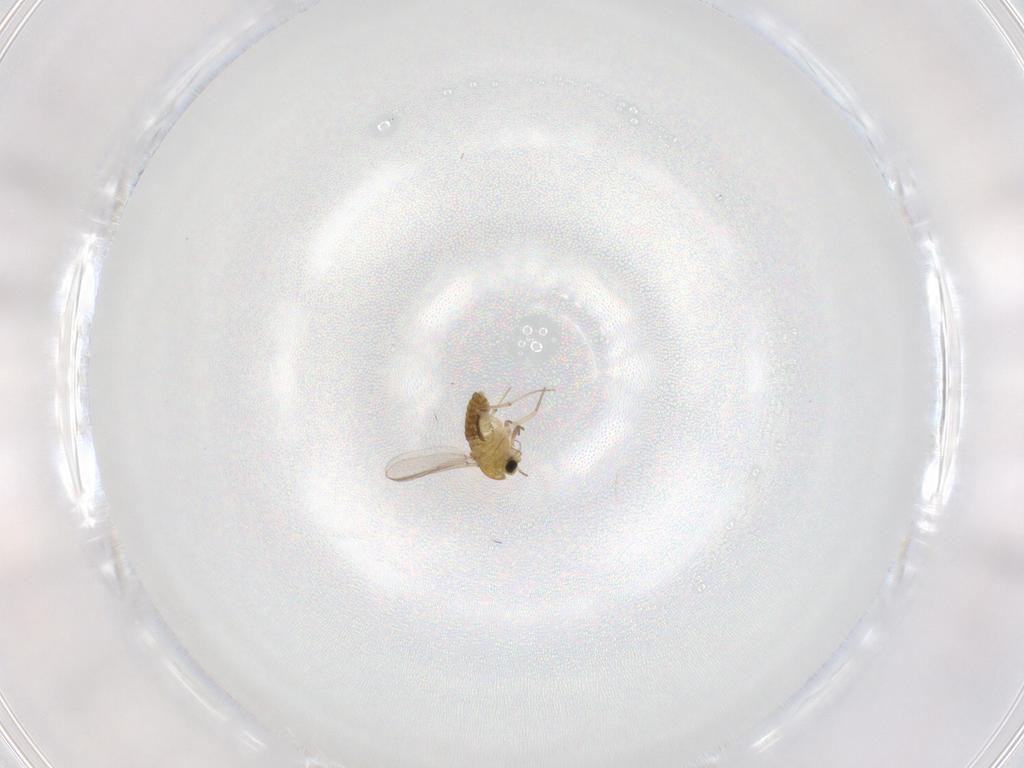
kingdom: Animalia
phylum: Arthropoda
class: Insecta
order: Diptera
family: Chironomidae
